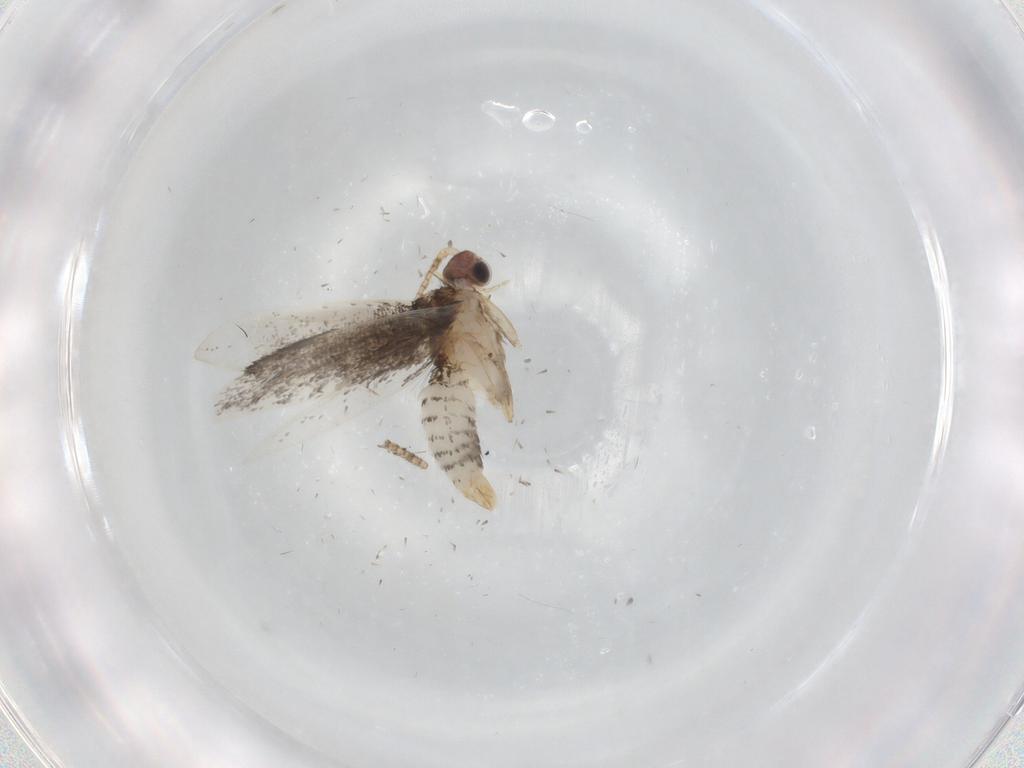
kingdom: Animalia
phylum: Arthropoda
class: Insecta
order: Lepidoptera
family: Tineidae
